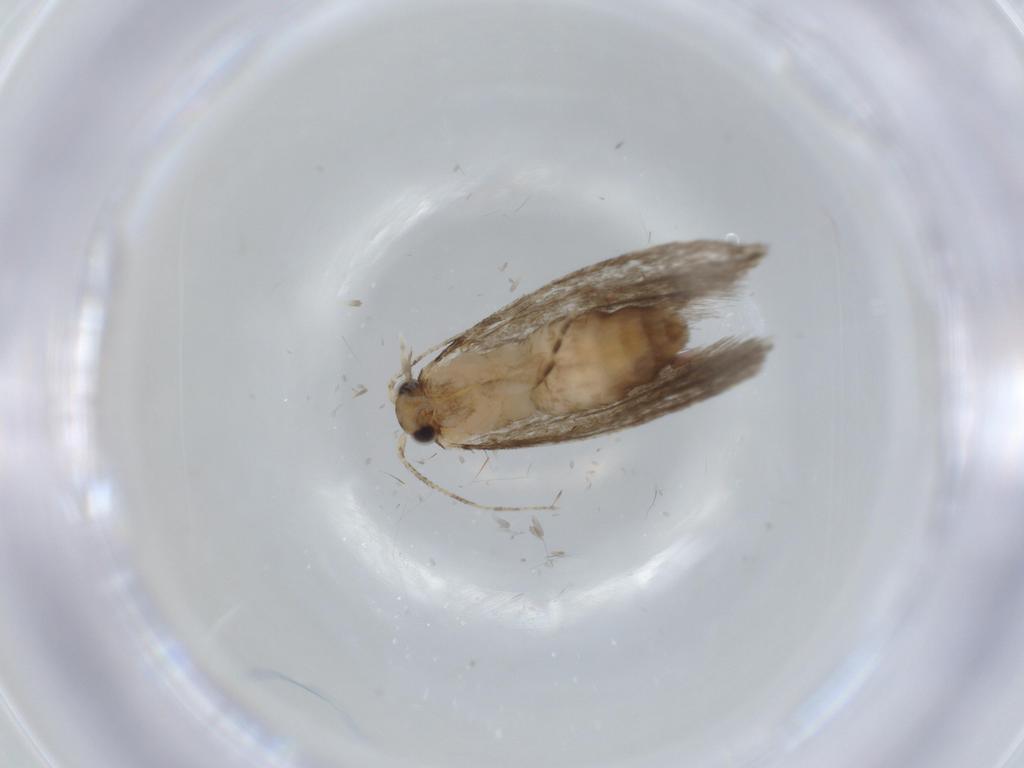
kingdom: Animalia
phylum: Arthropoda
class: Insecta
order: Lepidoptera
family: Tineidae
